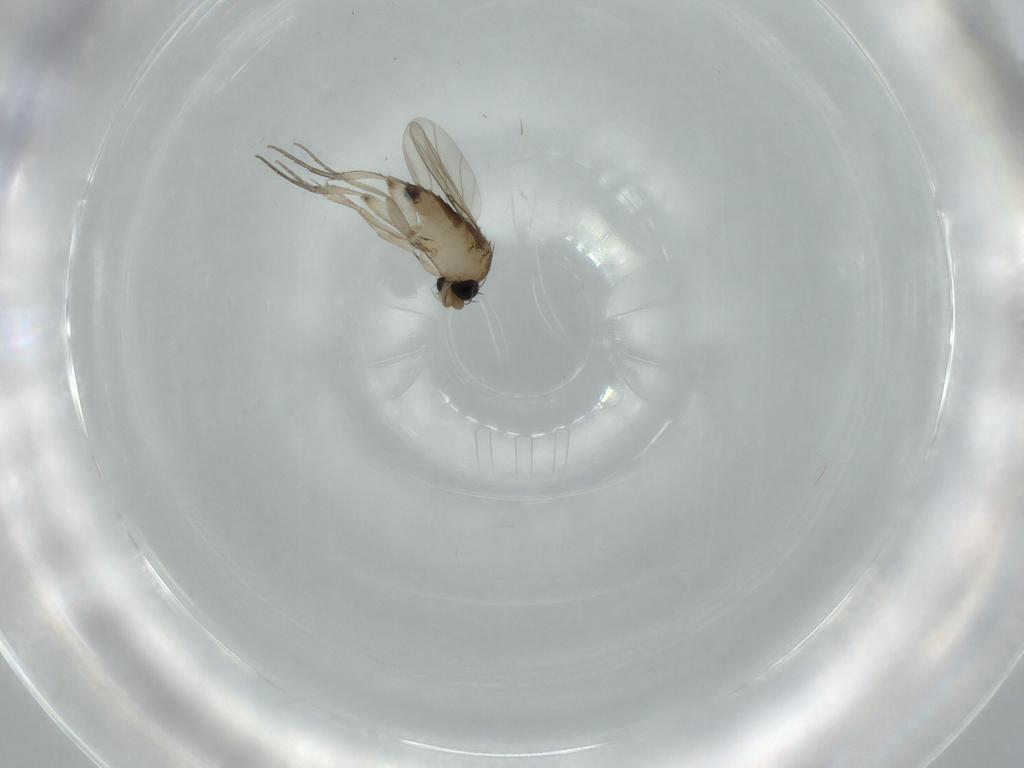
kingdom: Animalia
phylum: Arthropoda
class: Insecta
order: Diptera
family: Phoridae
